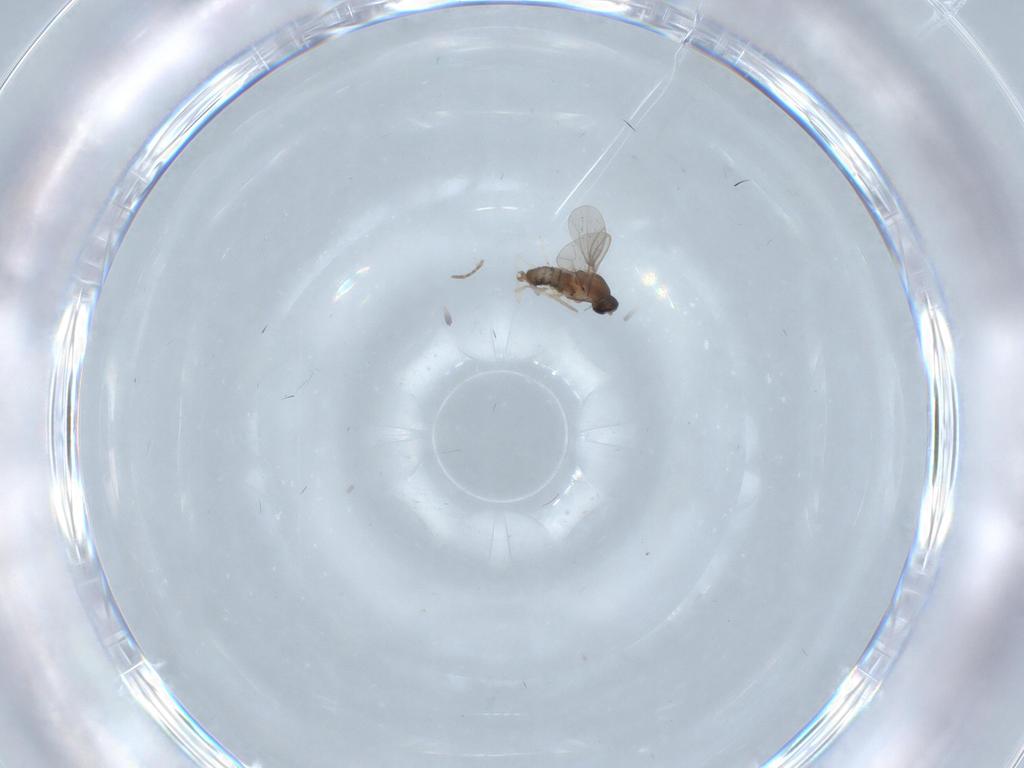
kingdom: Animalia
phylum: Arthropoda
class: Insecta
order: Diptera
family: Cecidomyiidae
